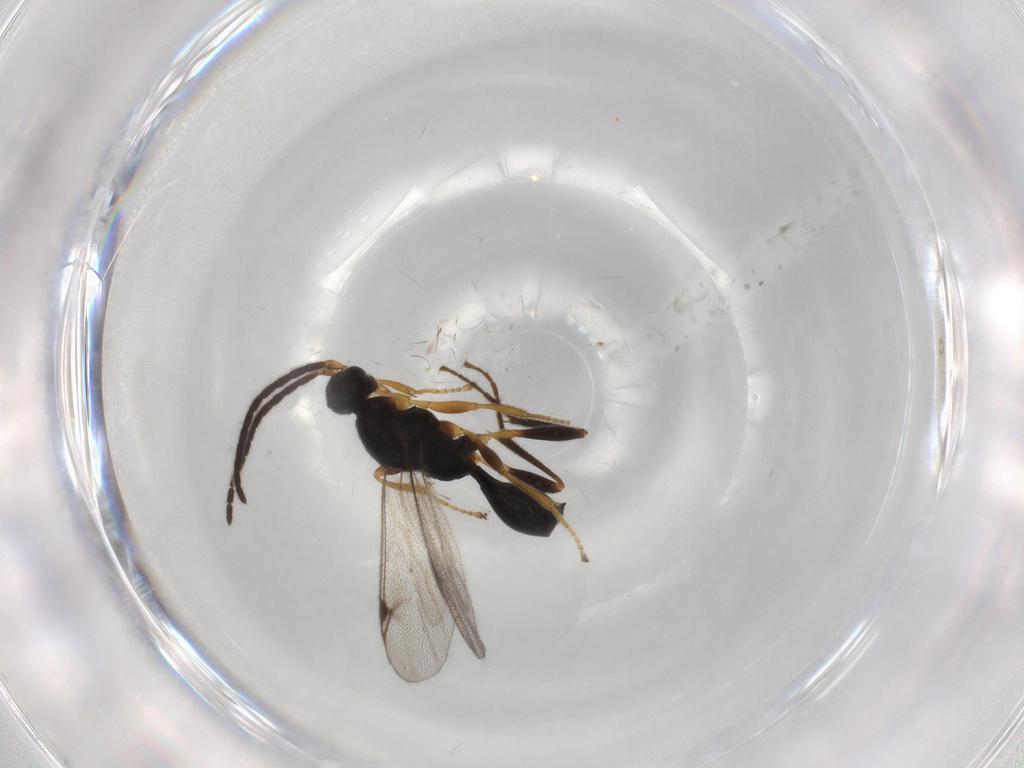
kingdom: Animalia
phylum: Arthropoda
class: Insecta
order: Hymenoptera
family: Proctotrupidae
